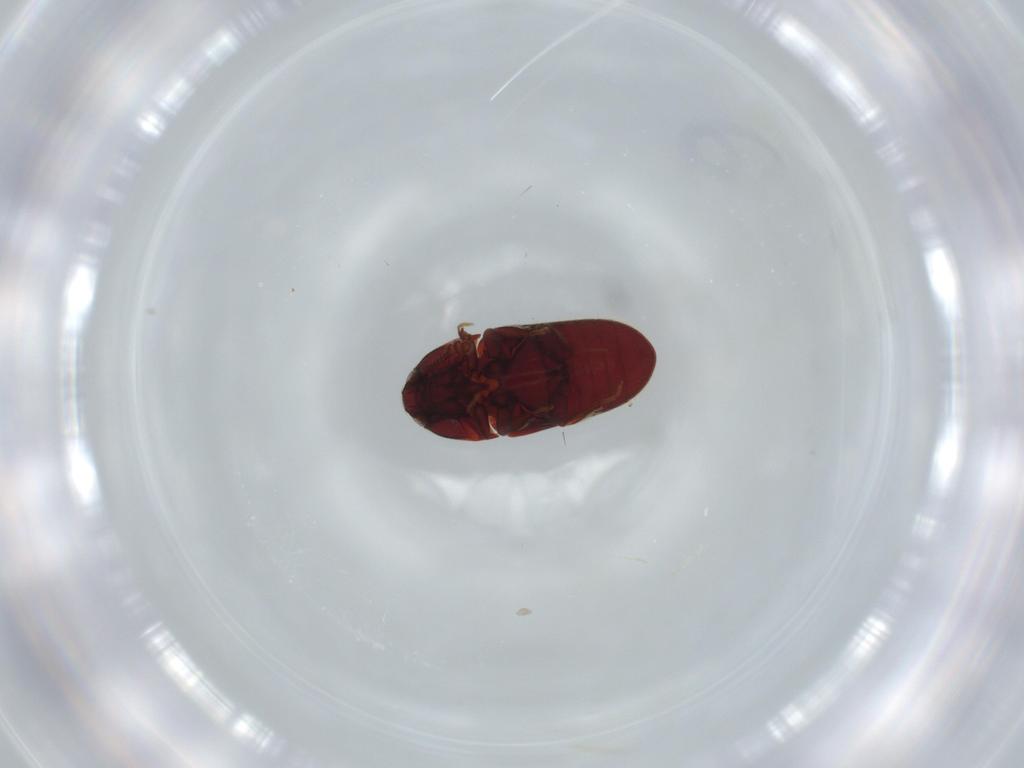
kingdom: Animalia
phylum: Arthropoda
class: Insecta
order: Coleoptera
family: Throscidae
